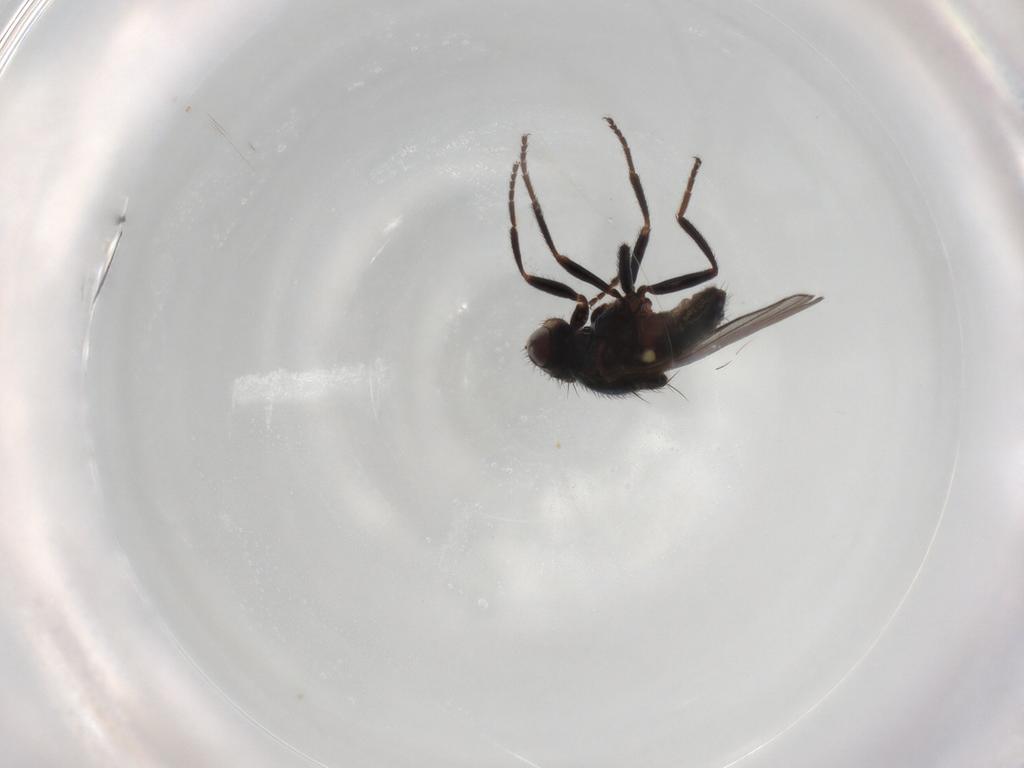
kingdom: Animalia
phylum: Arthropoda
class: Insecta
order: Diptera
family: Chloropidae
